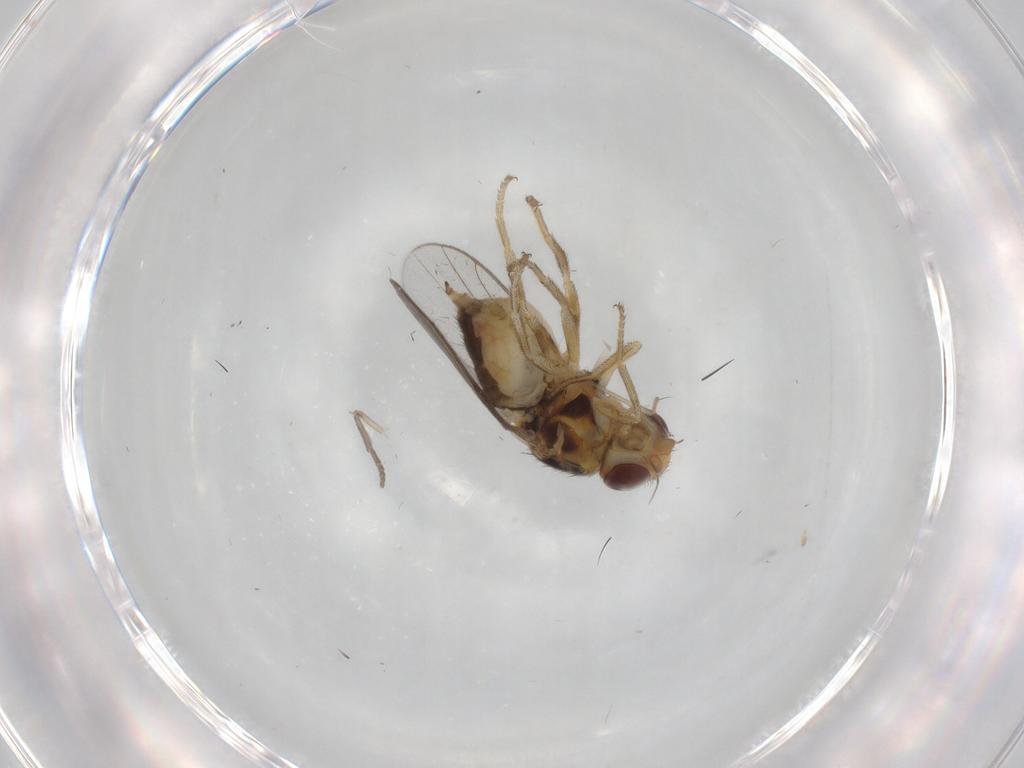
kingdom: Animalia
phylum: Arthropoda
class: Insecta
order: Diptera
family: Chloropidae
